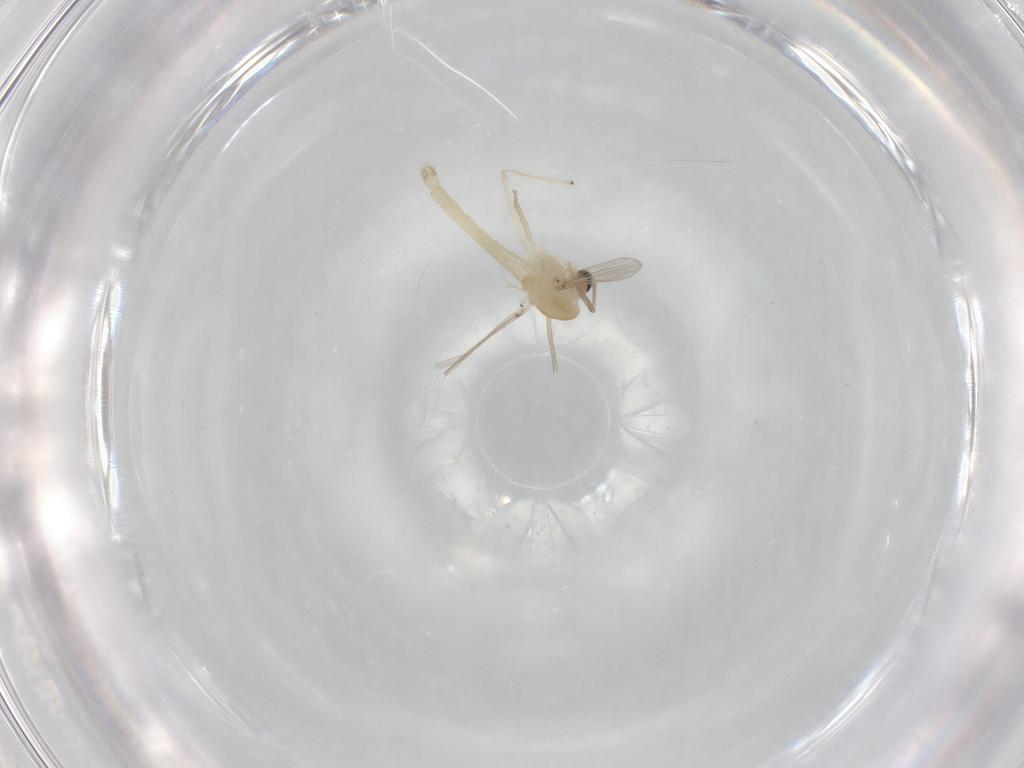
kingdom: Animalia
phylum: Arthropoda
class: Insecta
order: Diptera
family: Chironomidae
